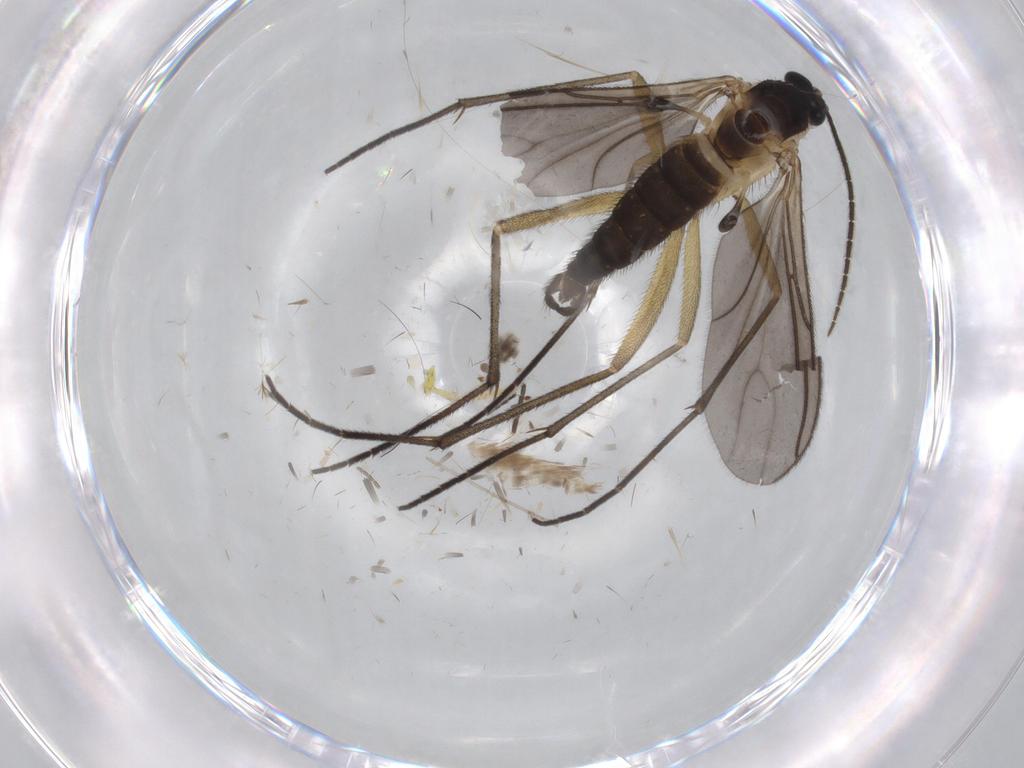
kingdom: Animalia
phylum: Arthropoda
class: Insecta
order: Diptera
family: Sciaridae
